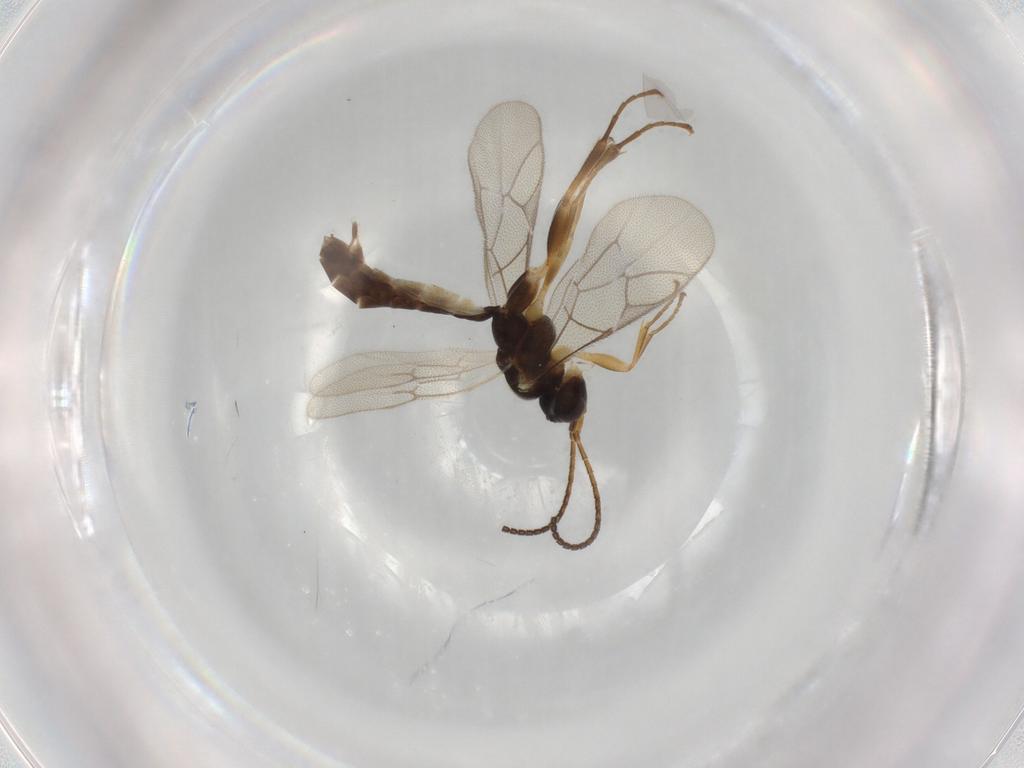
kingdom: Animalia
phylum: Arthropoda
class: Insecta
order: Hymenoptera
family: Ichneumonidae
